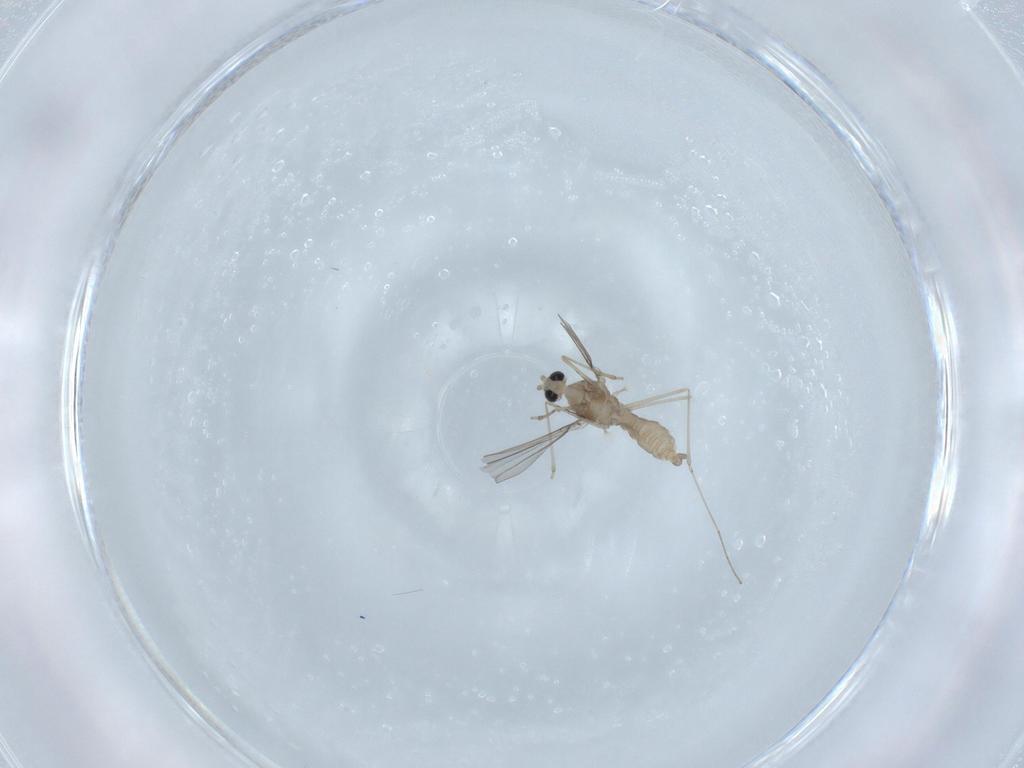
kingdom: Animalia
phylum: Arthropoda
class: Insecta
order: Diptera
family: Cecidomyiidae
